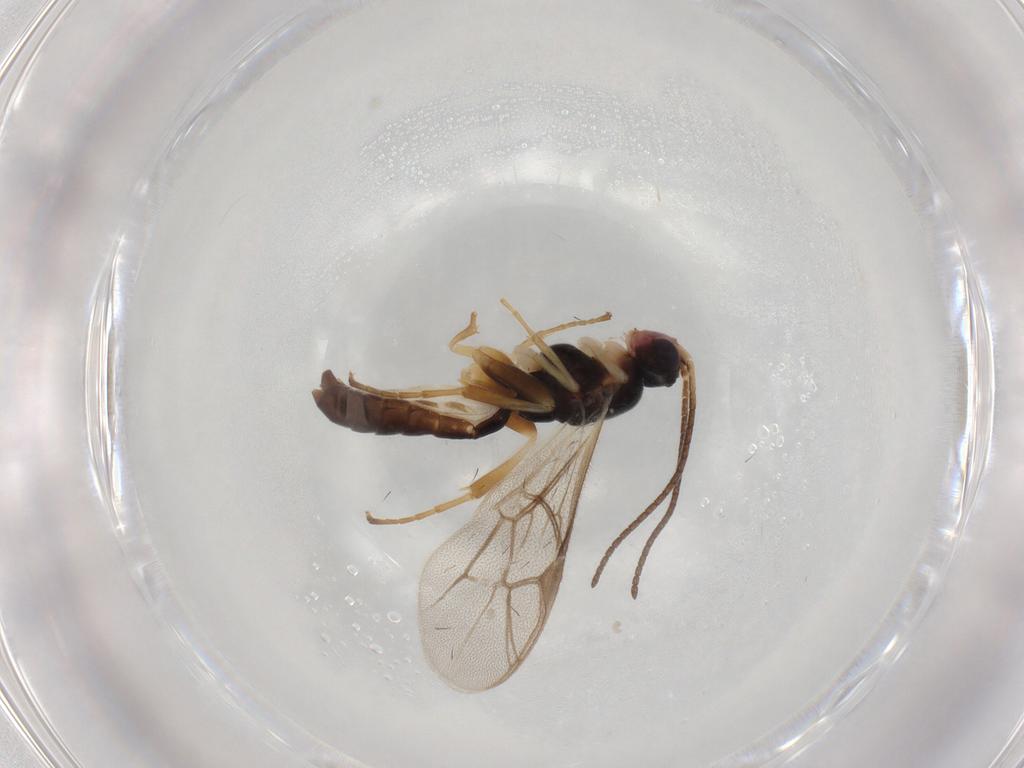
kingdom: Animalia
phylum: Arthropoda
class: Insecta
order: Hymenoptera
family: Ichneumonidae
